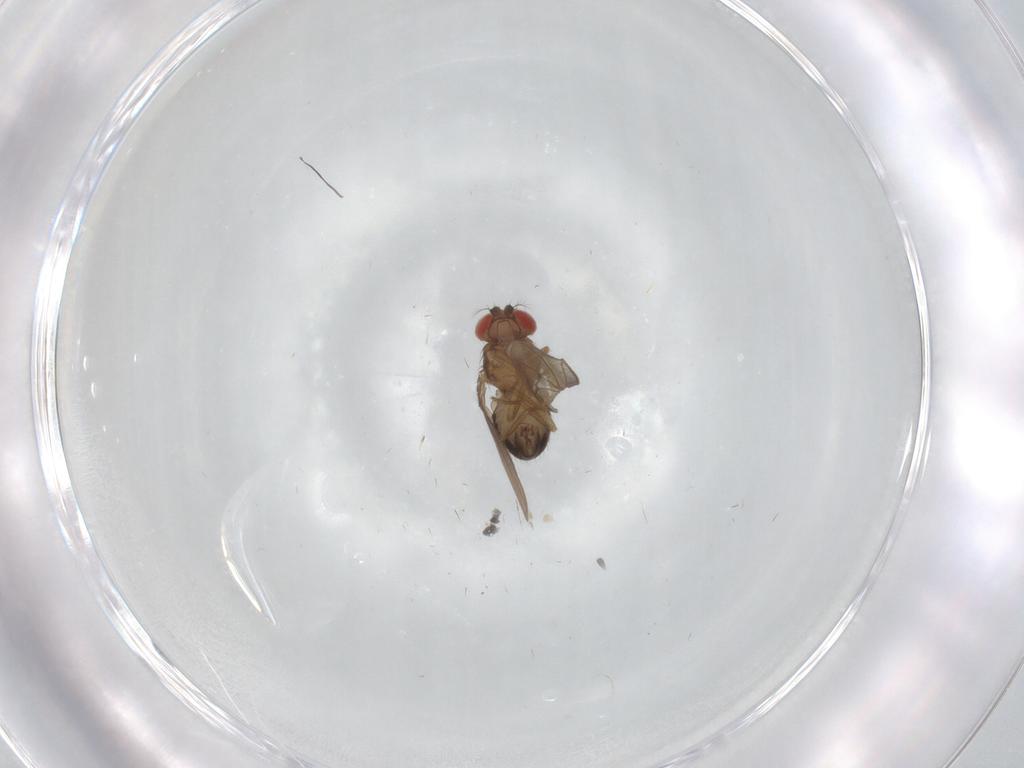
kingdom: Animalia
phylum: Arthropoda
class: Insecta
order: Diptera
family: Drosophilidae
